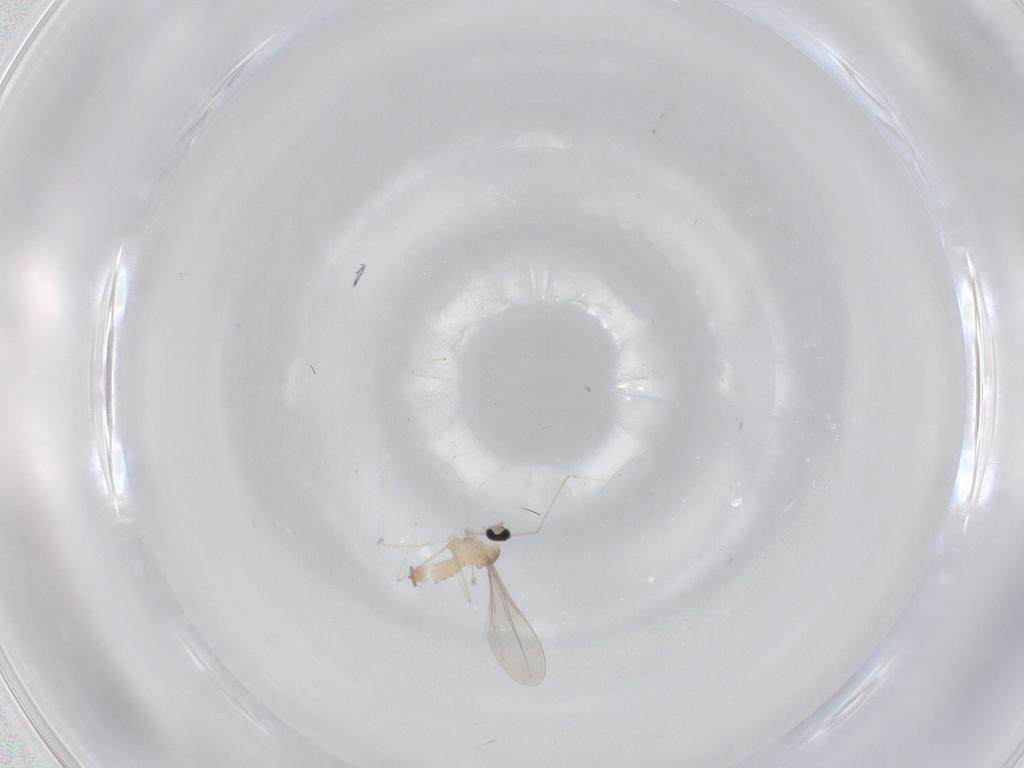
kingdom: Animalia
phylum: Arthropoda
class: Insecta
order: Diptera
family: Cecidomyiidae
